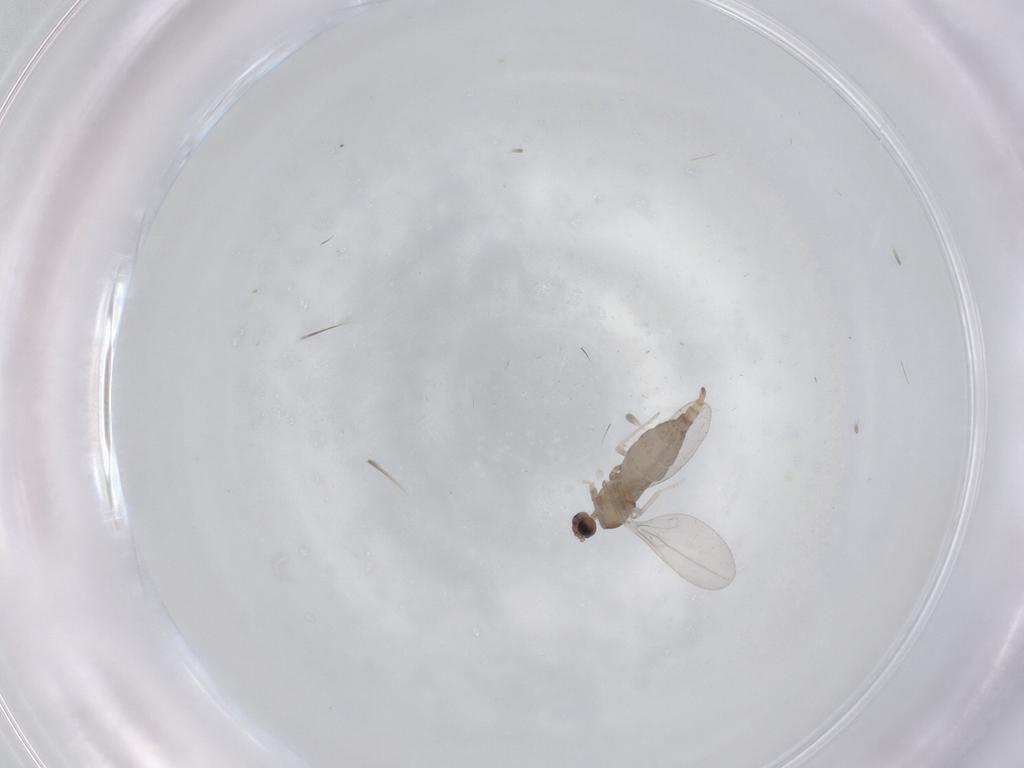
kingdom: Animalia
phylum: Arthropoda
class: Insecta
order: Diptera
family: Cecidomyiidae
